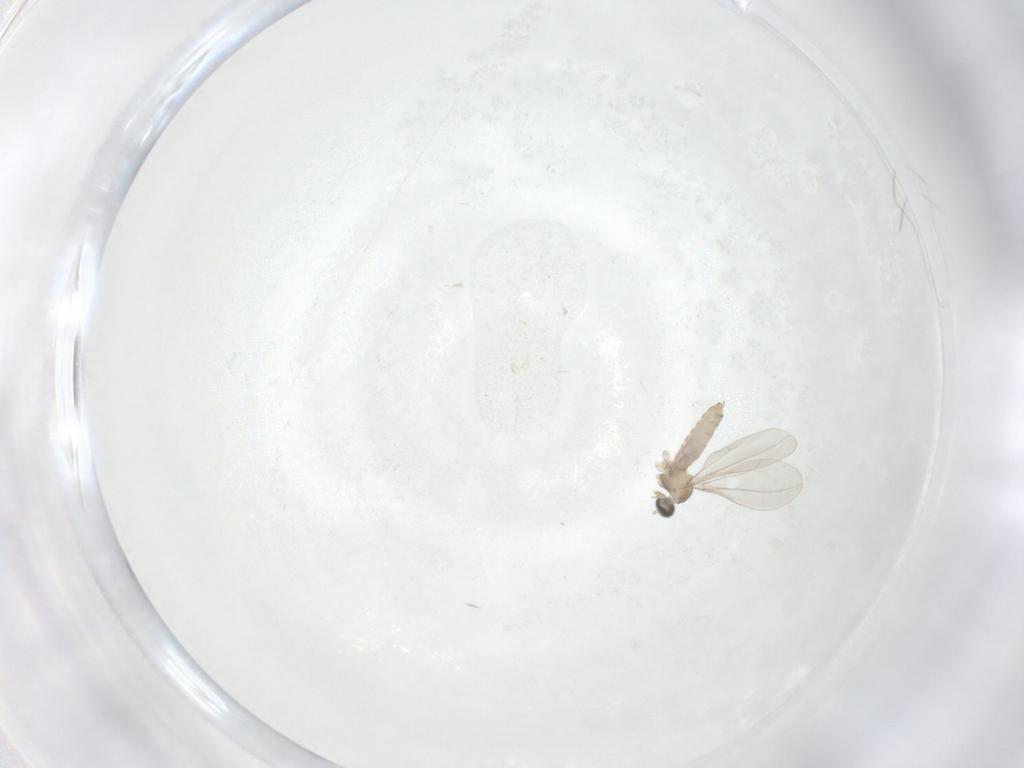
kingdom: Animalia
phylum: Arthropoda
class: Insecta
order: Diptera
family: Tabanidae
